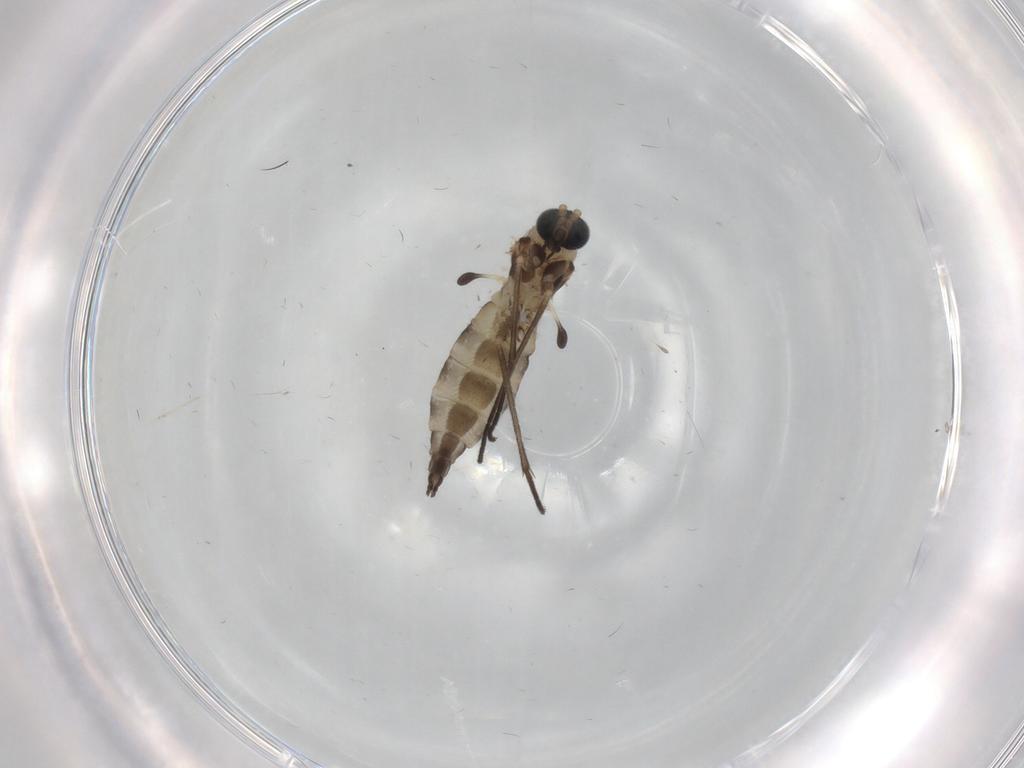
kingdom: Animalia
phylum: Arthropoda
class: Insecta
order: Diptera
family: Sciaridae
